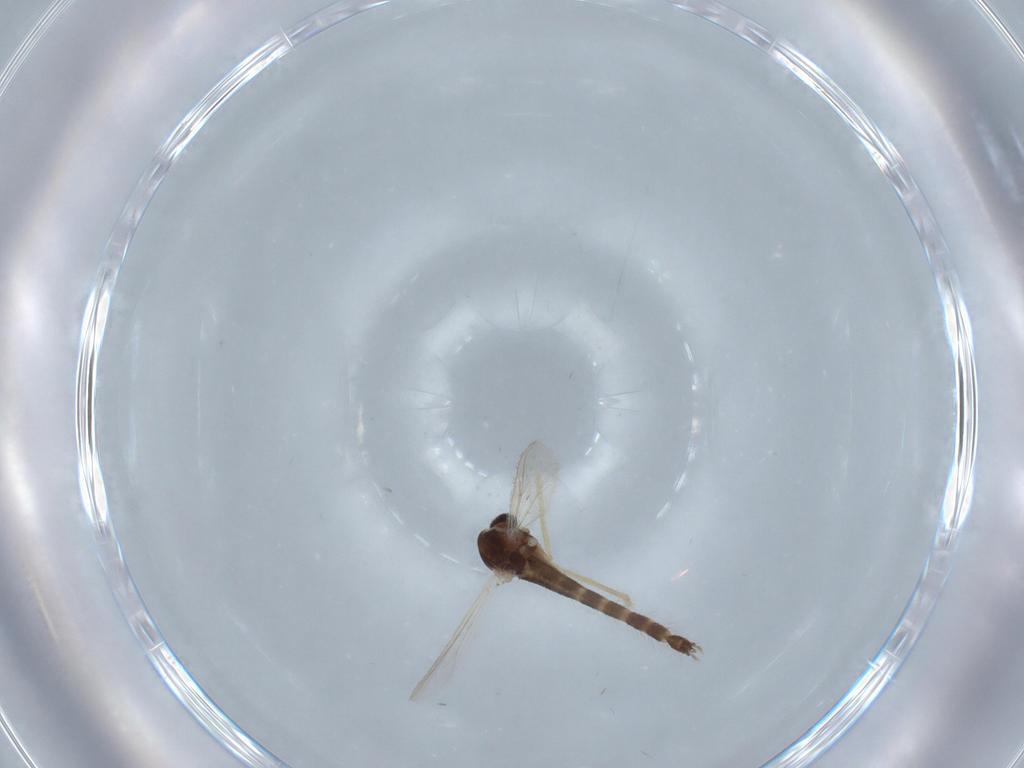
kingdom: Animalia
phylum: Arthropoda
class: Insecta
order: Diptera
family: Chironomidae
